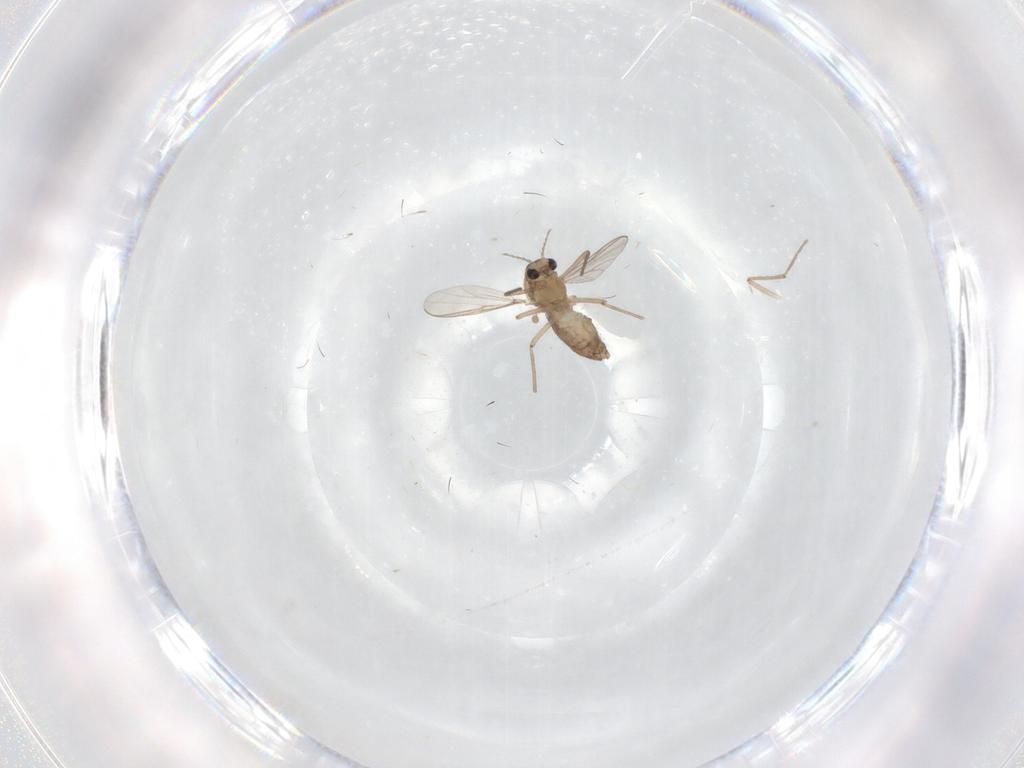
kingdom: Animalia
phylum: Arthropoda
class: Insecta
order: Diptera
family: Chironomidae
